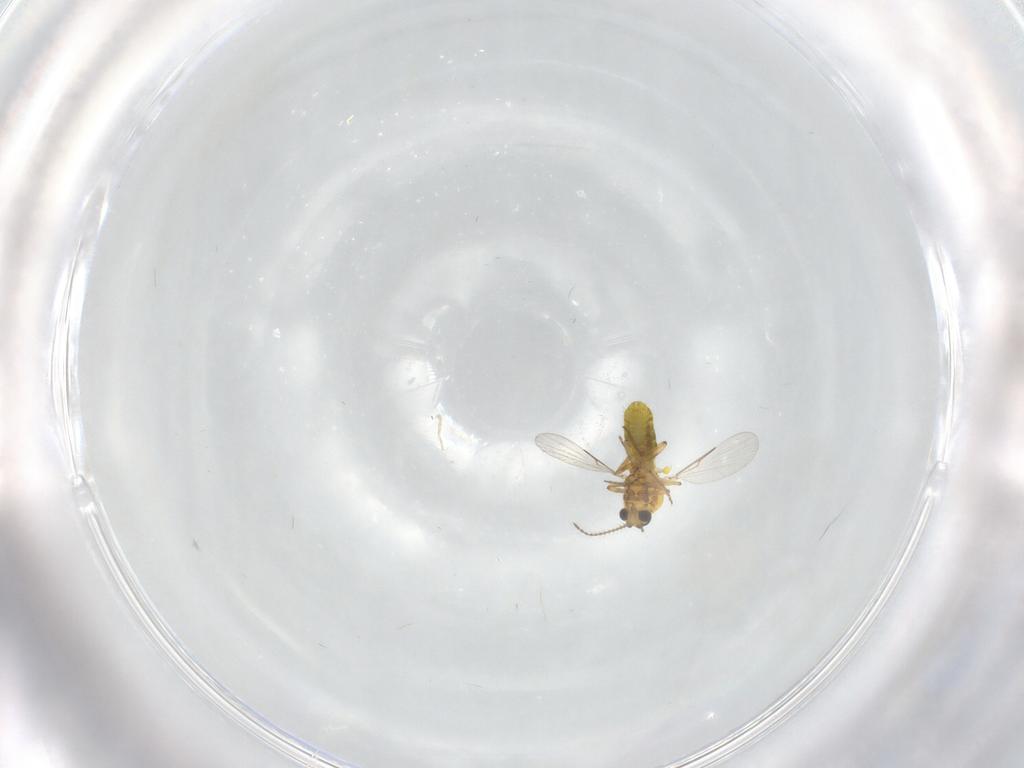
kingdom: Animalia
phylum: Arthropoda
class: Insecta
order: Diptera
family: Ceratopogonidae
